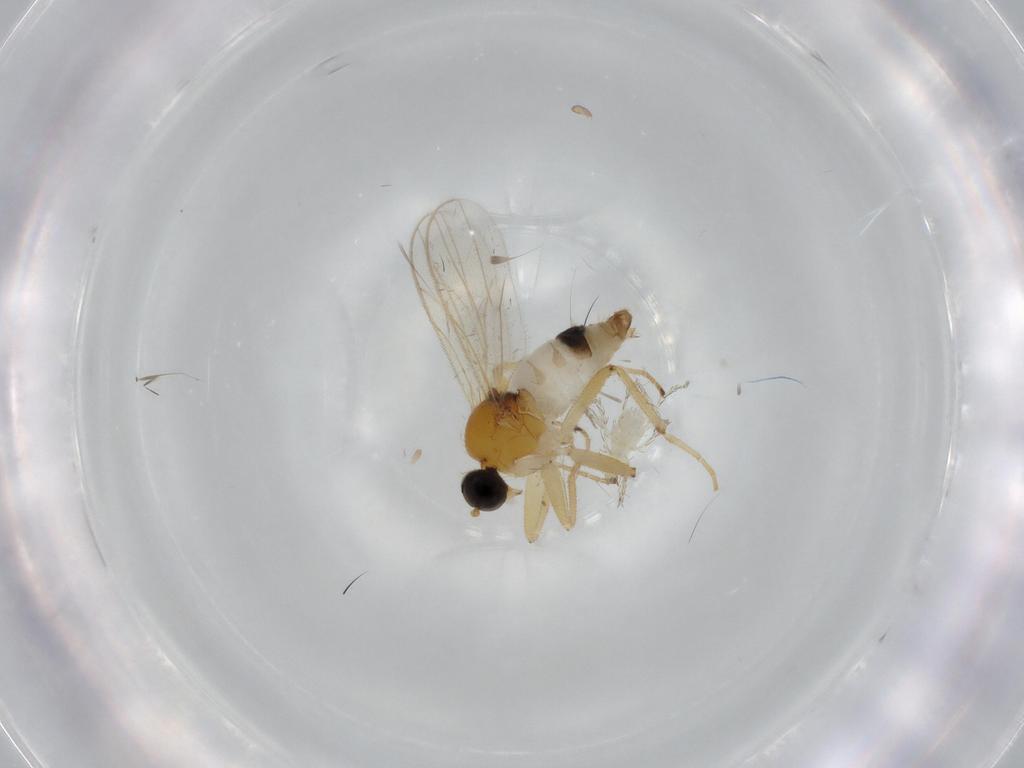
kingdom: Animalia
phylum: Arthropoda
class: Insecta
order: Diptera
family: Hybotidae
